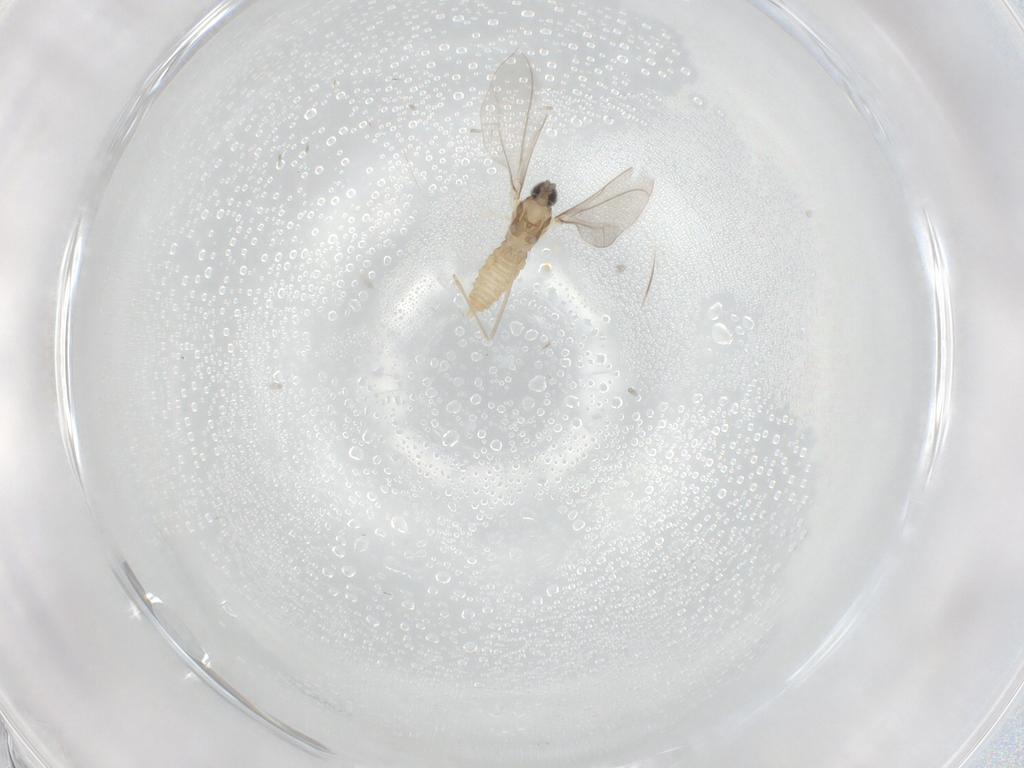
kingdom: Animalia
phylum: Arthropoda
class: Insecta
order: Diptera
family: Cecidomyiidae
